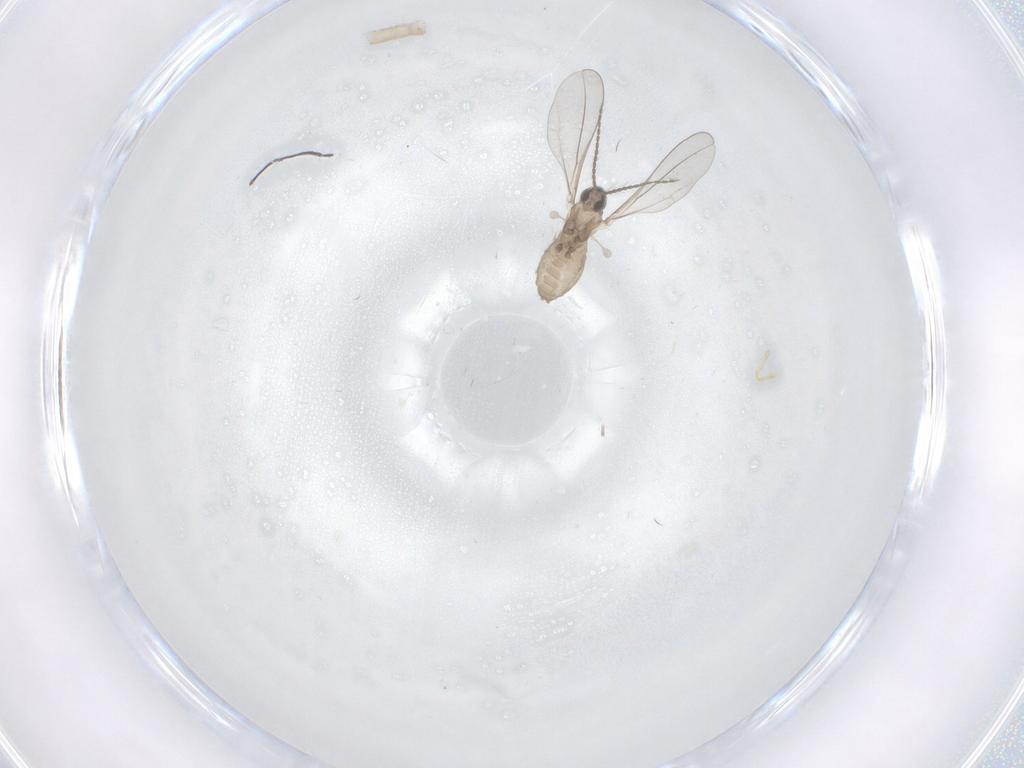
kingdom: Animalia
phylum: Arthropoda
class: Insecta
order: Diptera
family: Cecidomyiidae
